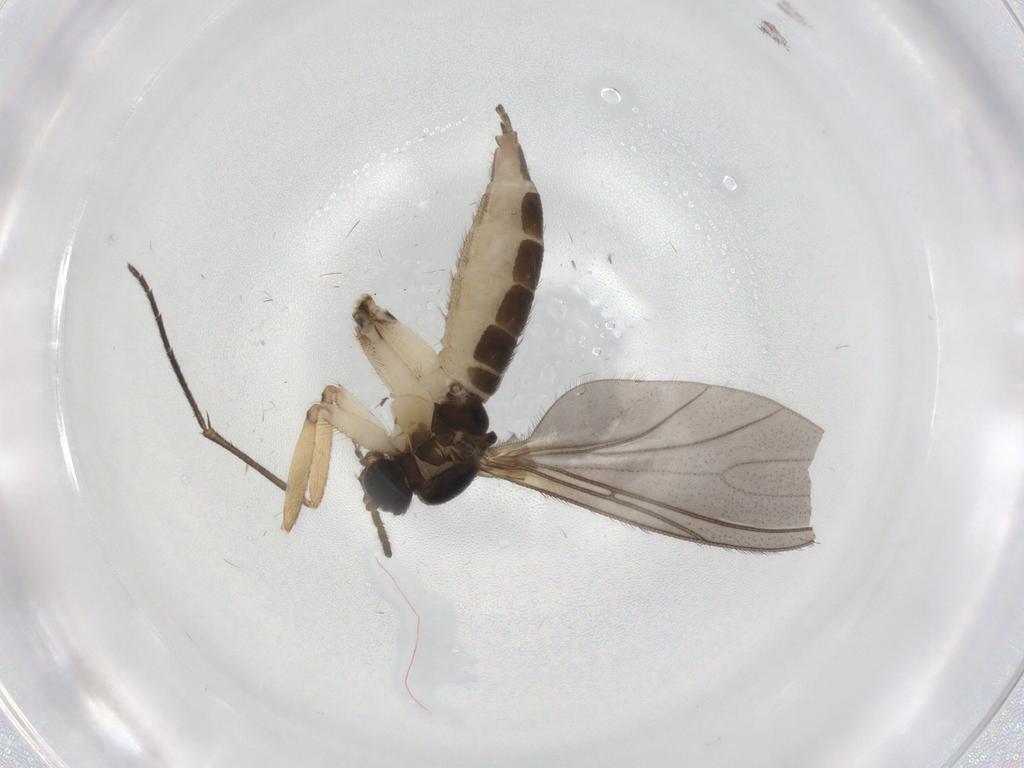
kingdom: Animalia
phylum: Arthropoda
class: Insecta
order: Diptera
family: Sciaridae
